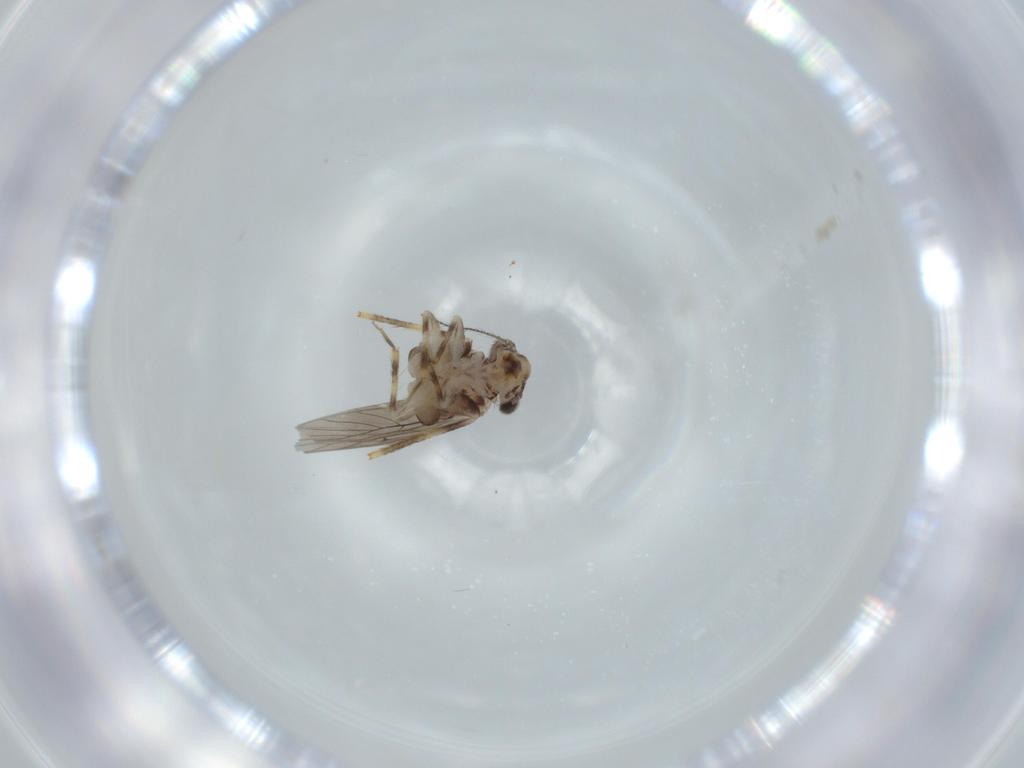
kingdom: Animalia
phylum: Arthropoda
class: Insecta
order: Psocodea
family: Lepidopsocidae
